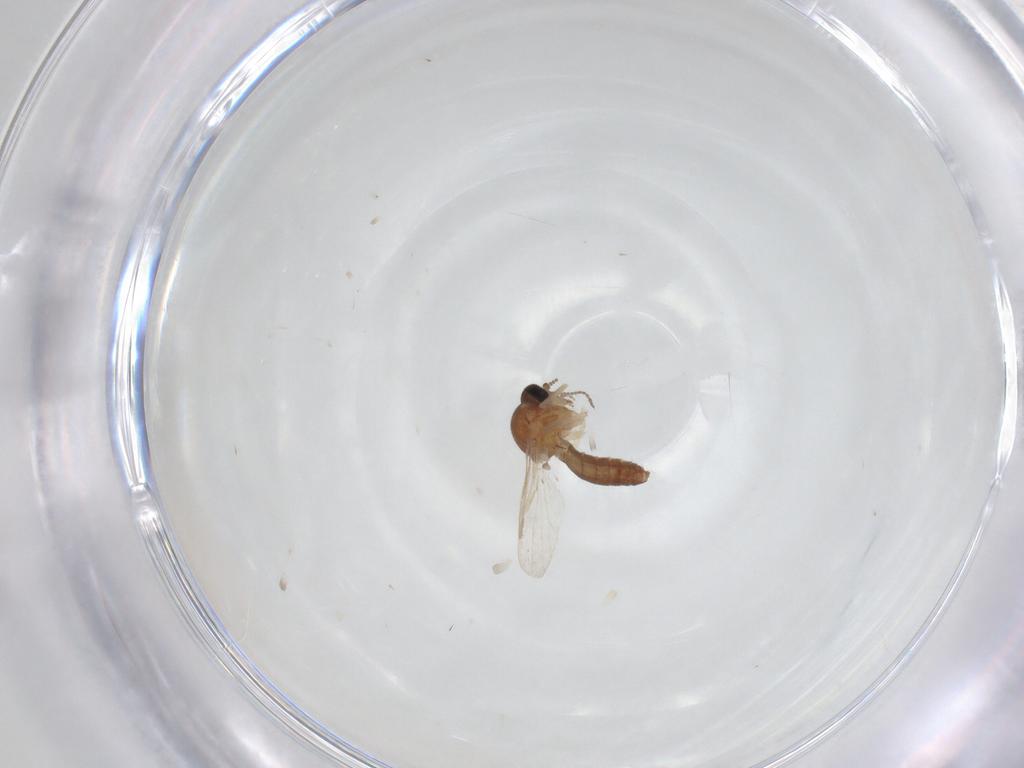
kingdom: Animalia
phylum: Arthropoda
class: Insecta
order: Diptera
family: Ceratopogonidae
